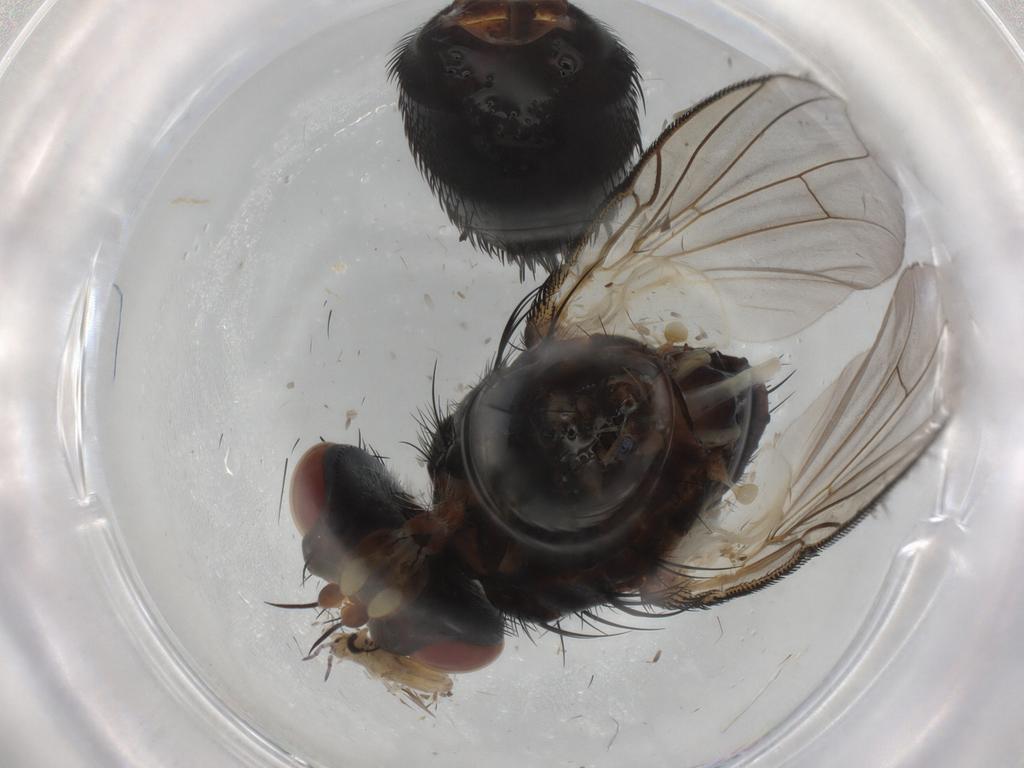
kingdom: Animalia
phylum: Arthropoda
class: Insecta
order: Diptera
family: Tachinidae
